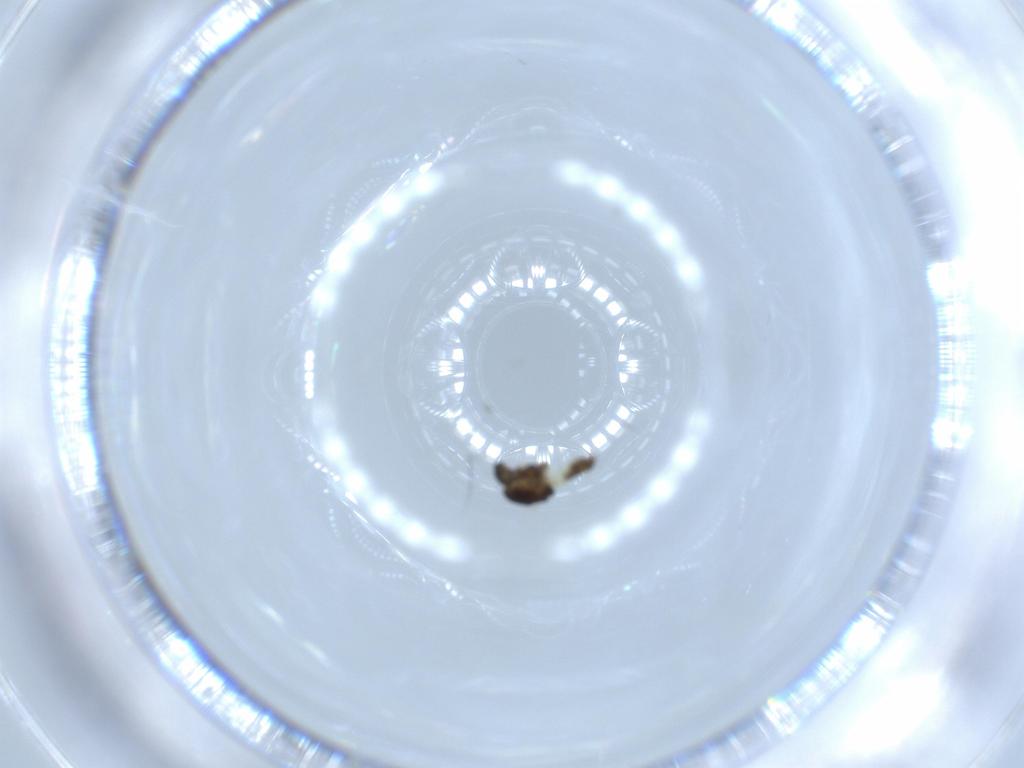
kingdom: Animalia
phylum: Arthropoda
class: Insecta
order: Diptera
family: Chironomidae
